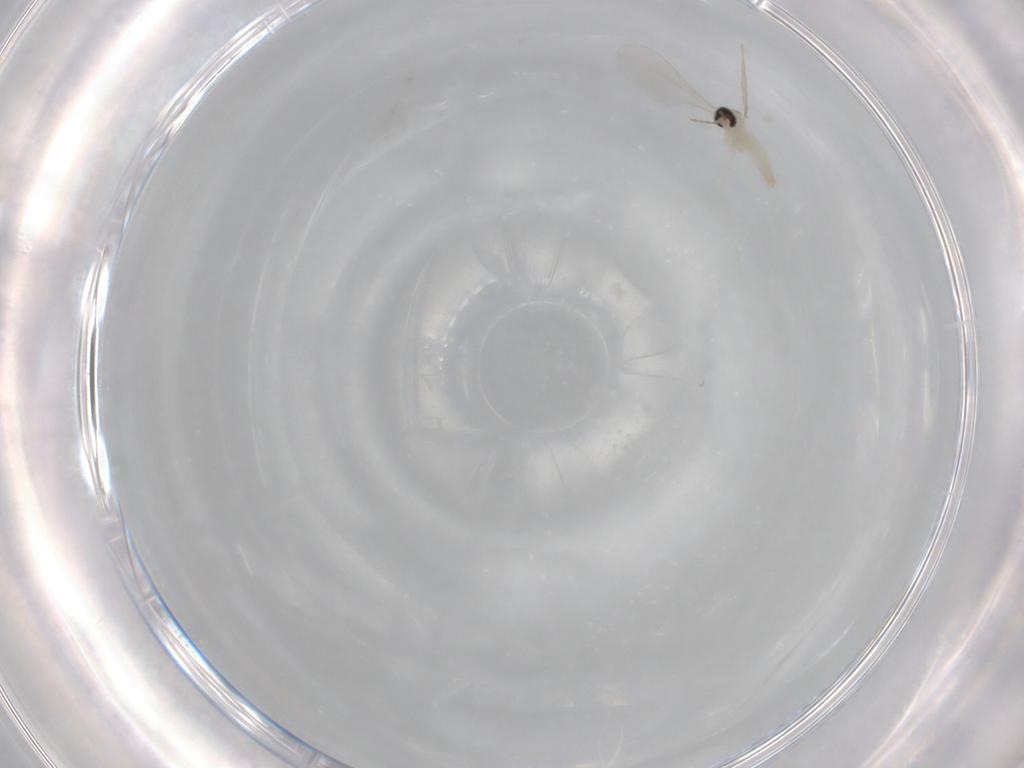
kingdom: Animalia
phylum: Arthropoda
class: Insecta
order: Diptera
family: Cecidomyiidae
